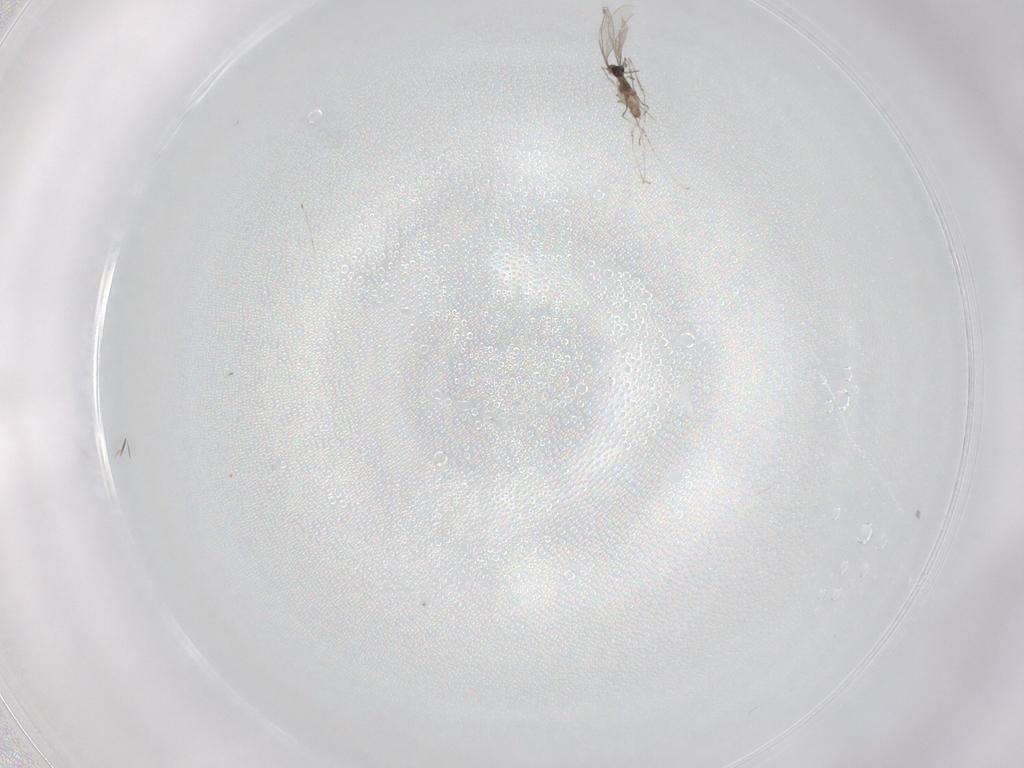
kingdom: Animalia
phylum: Arthropoda
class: Insecta
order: Diptera
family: Cecidomyiidae
